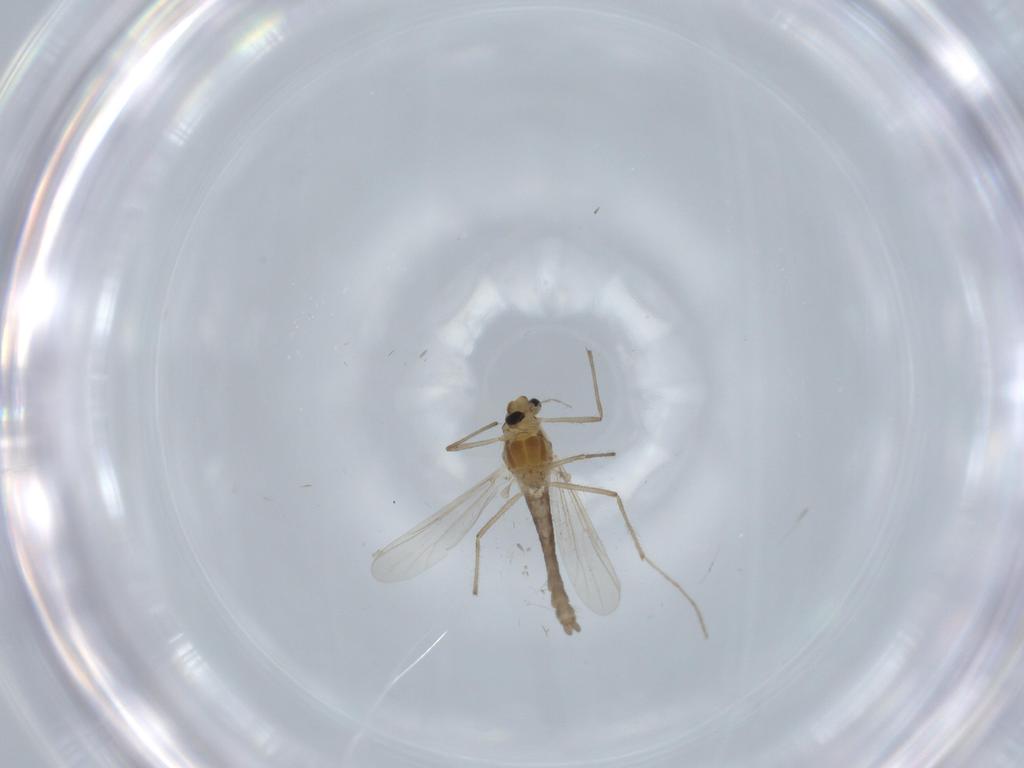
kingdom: Animalia
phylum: Arthropoda
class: Insecta
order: Diptera
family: Chironomidae
